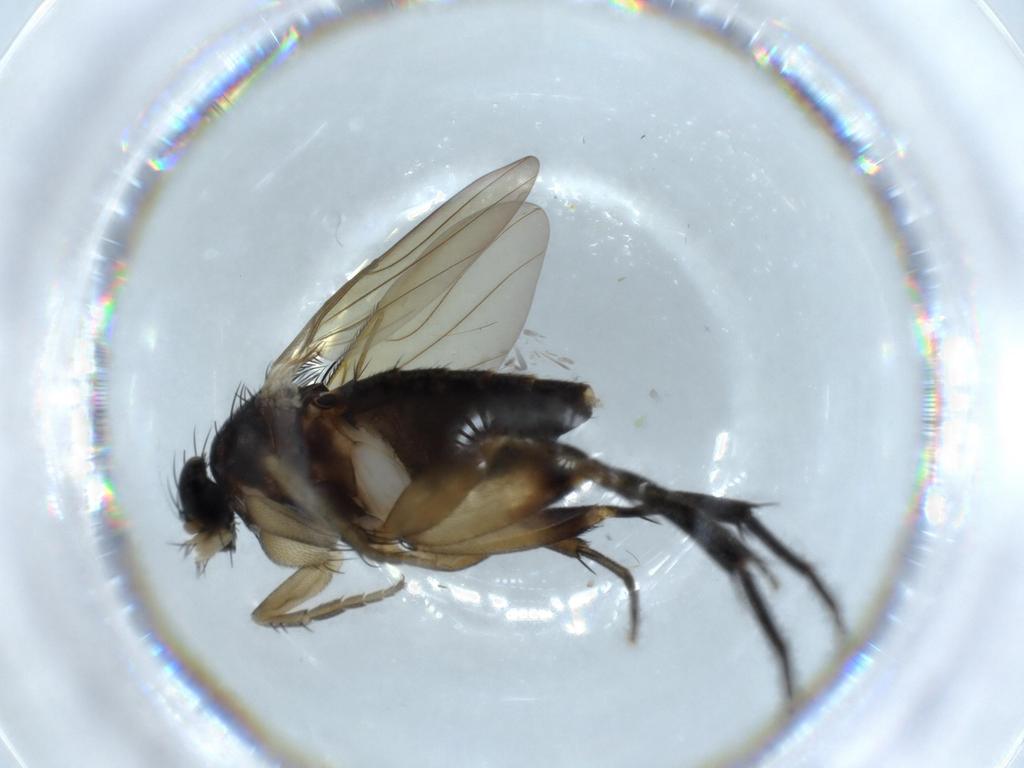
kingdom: Animalia
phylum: Arthropoda
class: Insecta
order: Diptera
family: Phoridae
